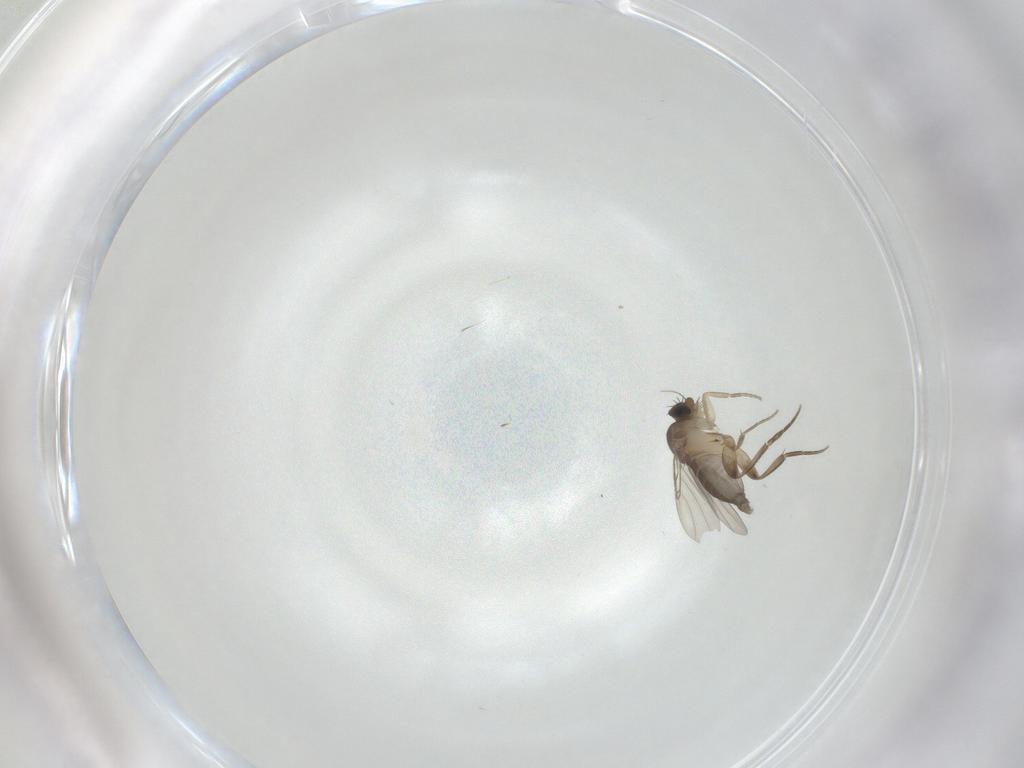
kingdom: Animalia
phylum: Arthropoda
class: Insecta
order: Diptera
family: Phoridae
